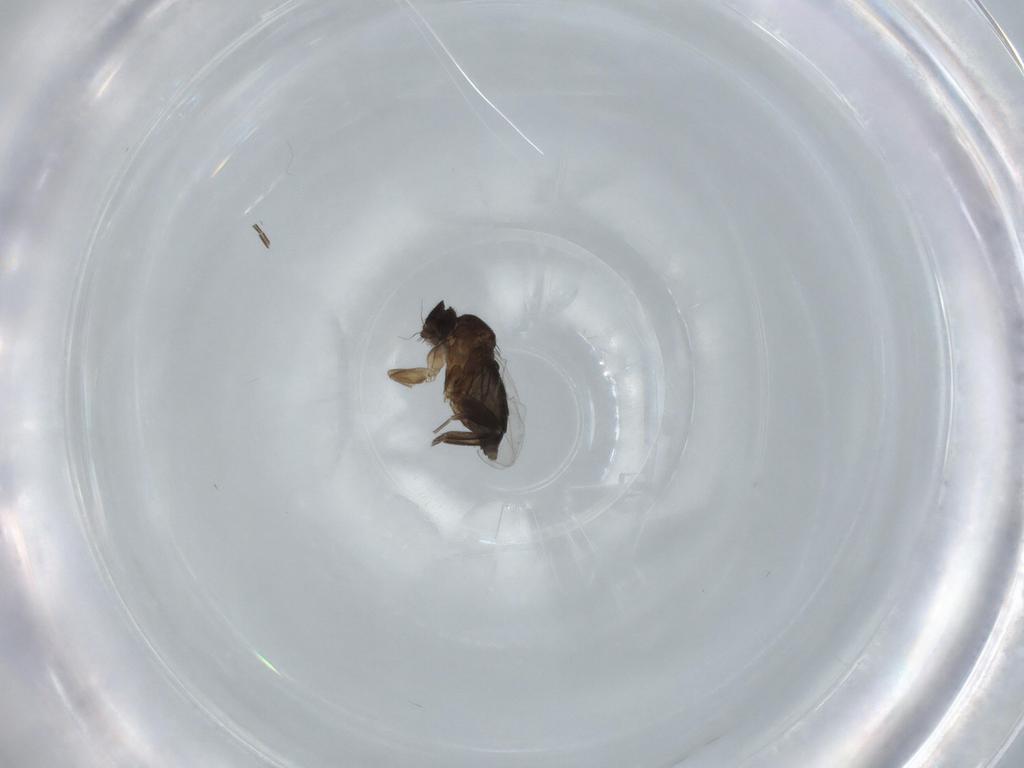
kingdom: Animalia
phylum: Arthropoda
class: Insecta
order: Diptera
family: Phoridae
